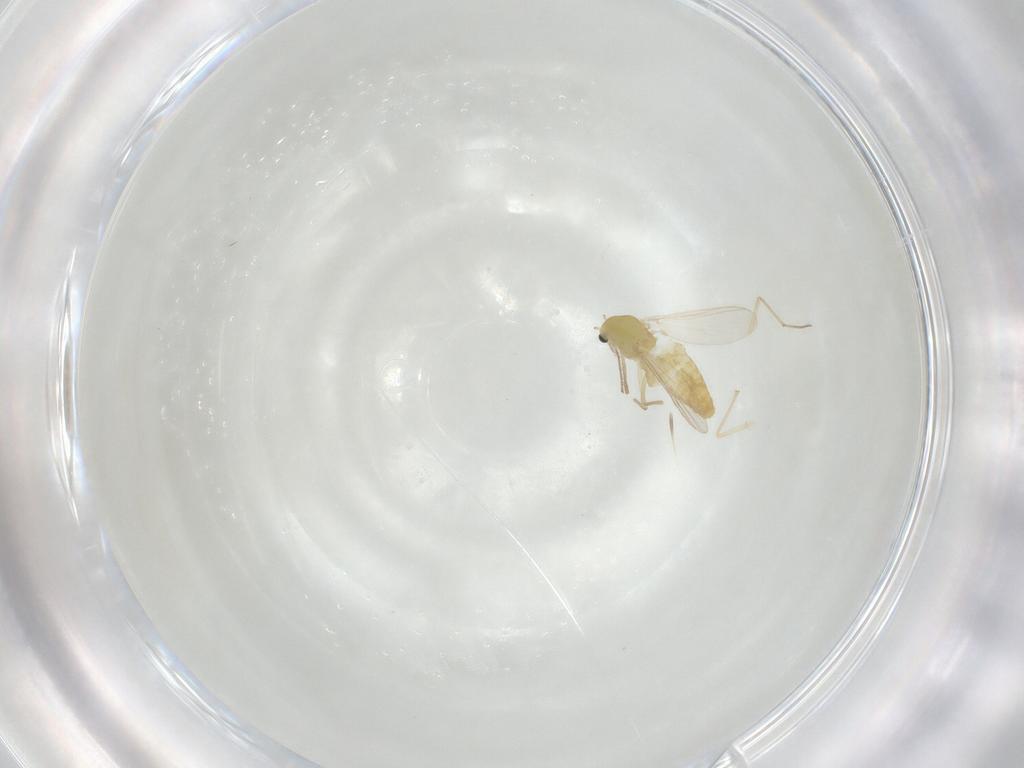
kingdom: Animalia
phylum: Arthropoda
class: Insecta
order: Diptera
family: Chironomidae
